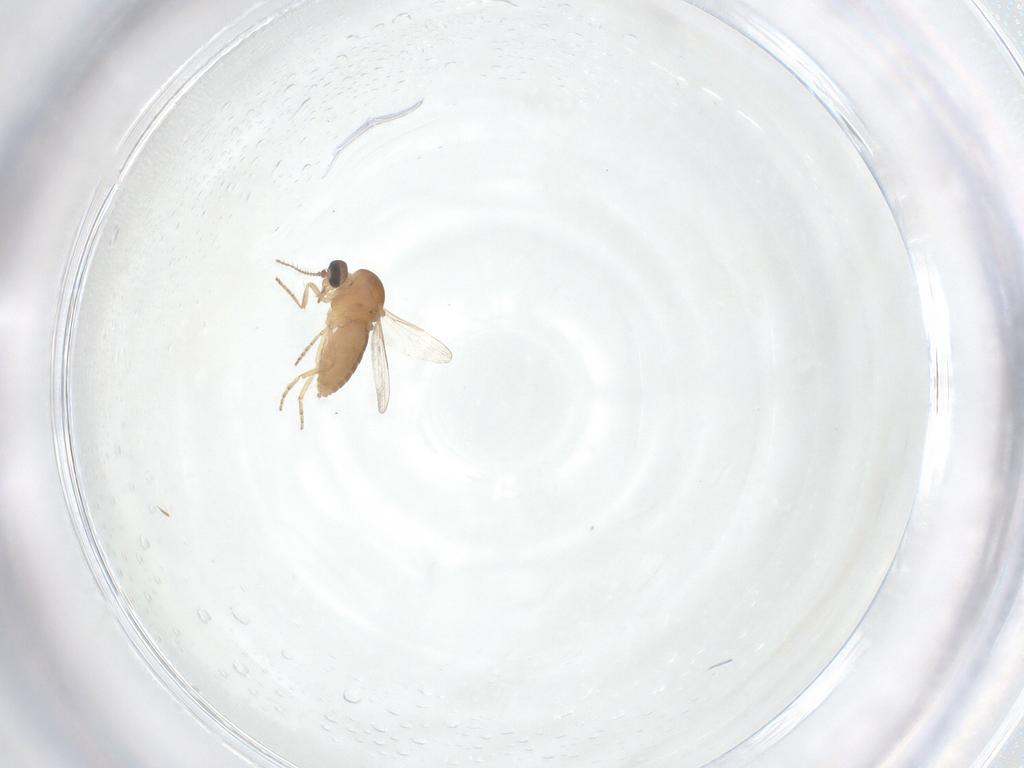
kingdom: Animalia
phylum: Arthropoda
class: Insecta
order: Diptera
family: Ceratopogonidae
